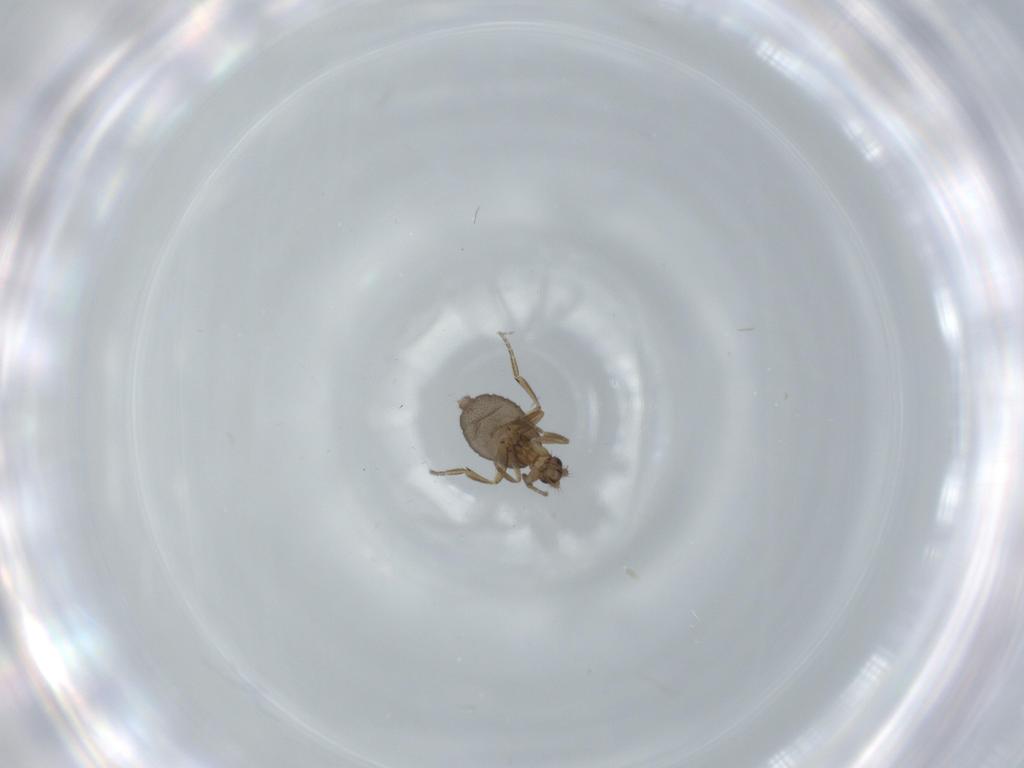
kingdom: Animalia
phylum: Arthropoda
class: Insecta
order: Diptera
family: Phoridae
